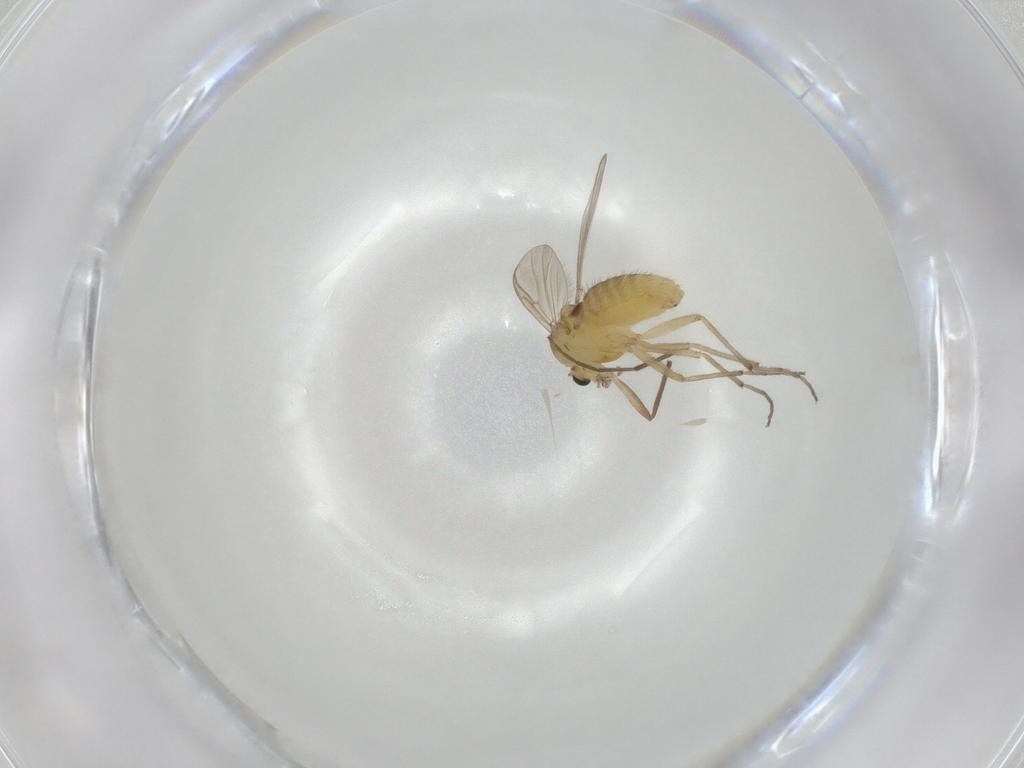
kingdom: Animalia
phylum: Arthropoda
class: Insecta
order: Diptera
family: Chironomidae
